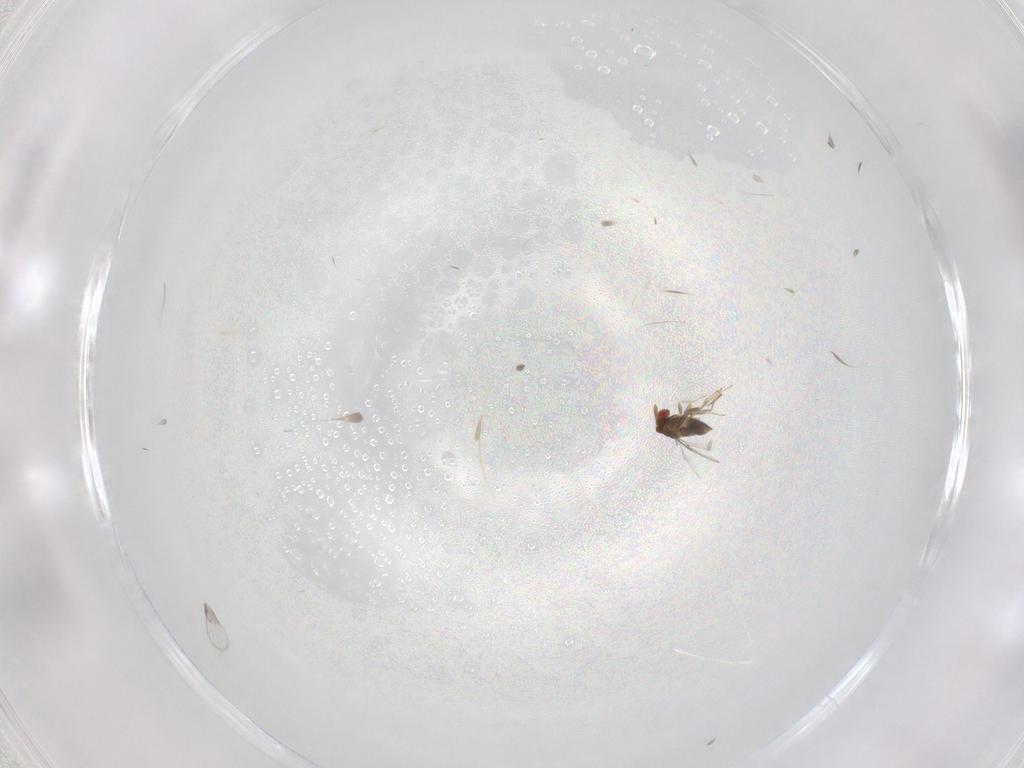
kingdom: Animalia
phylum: Arthropoda
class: Insecta
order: Hymenoptera
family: Trichogrammatidae
